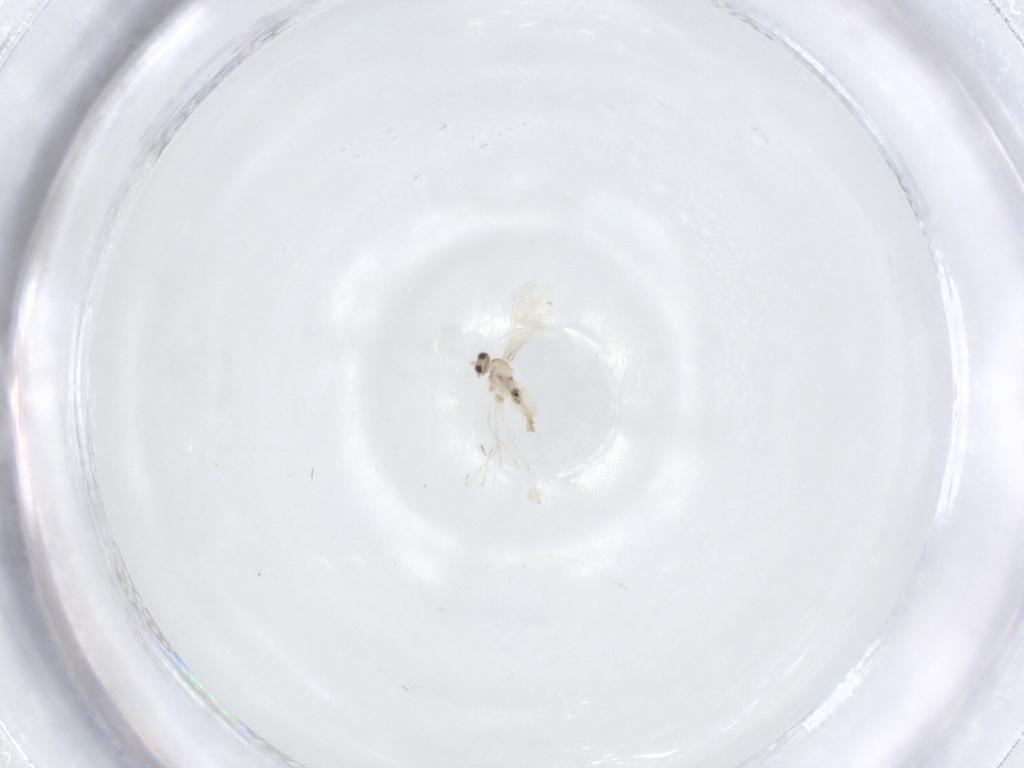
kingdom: Animalia
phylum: Arthropoda
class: Insecta
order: Diptera
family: Cecidomyiidae
